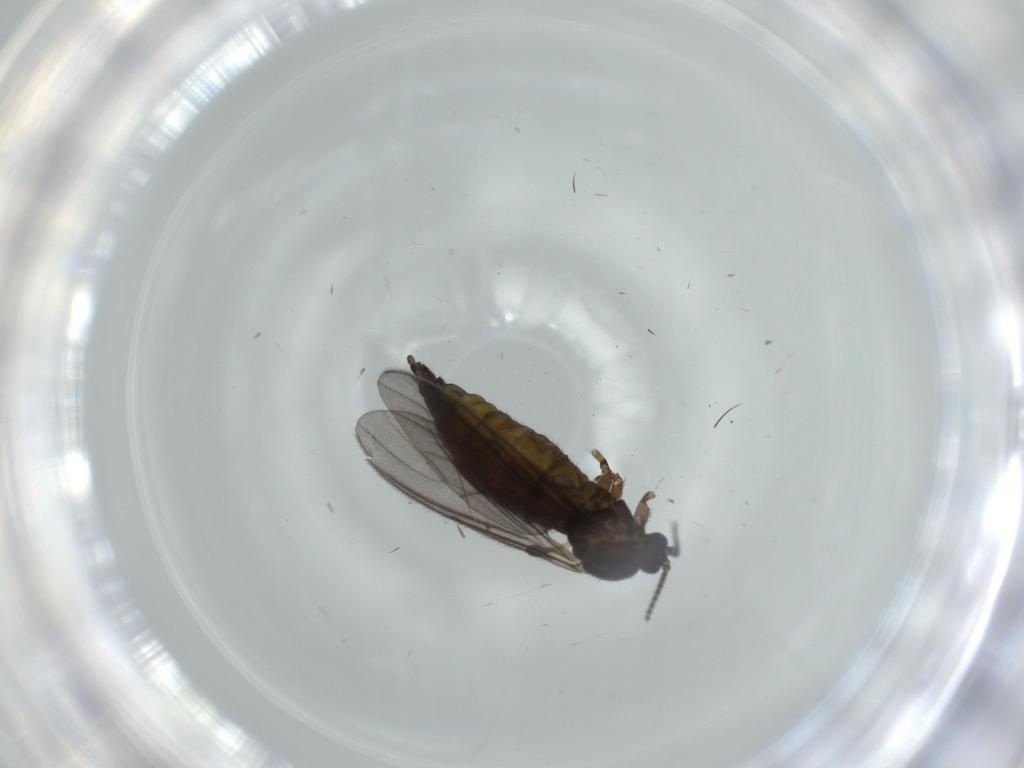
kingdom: Animalia
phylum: Arthropoda
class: Insecta
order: Diptera
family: Sciaridae
